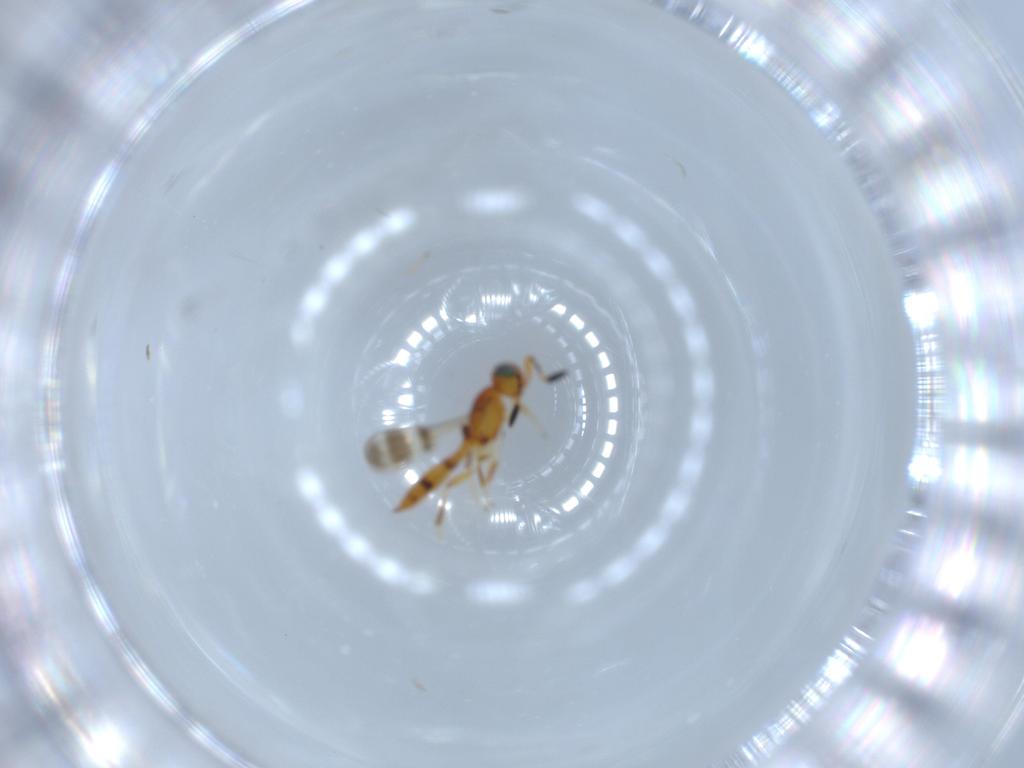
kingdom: Animalia
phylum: Arthropoda
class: Insecta
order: Hymenoptera
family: Scelionidae
